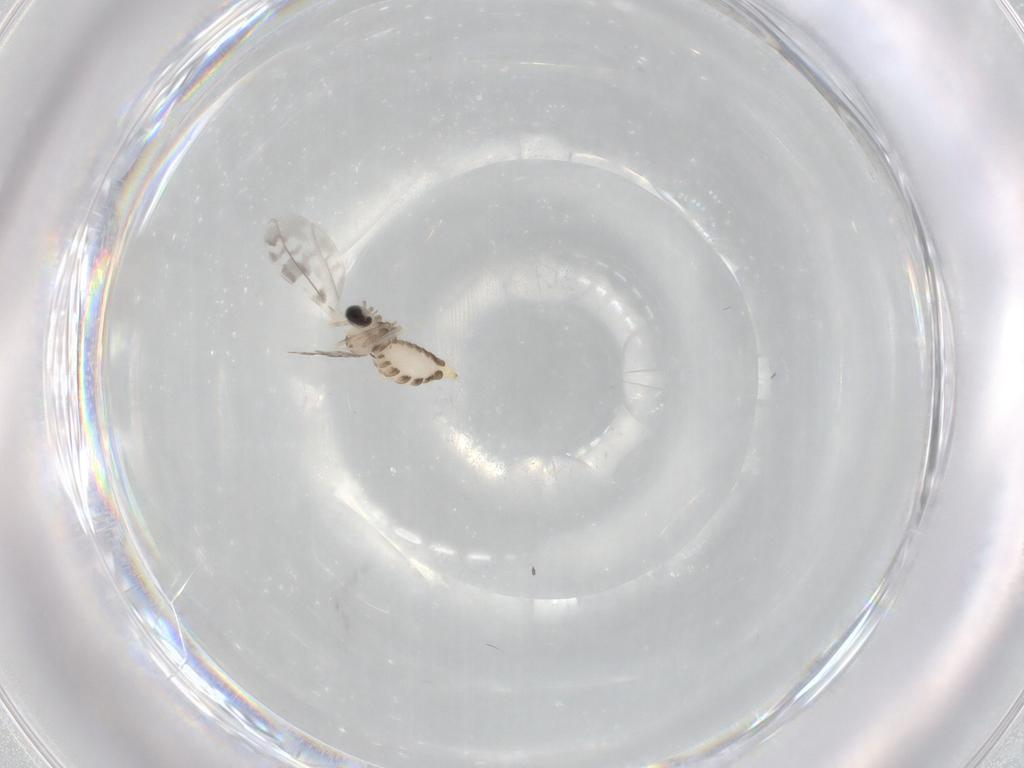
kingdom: Animalia
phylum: Arthropoda
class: Insecta
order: Diptera
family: Cecidomyiidae
